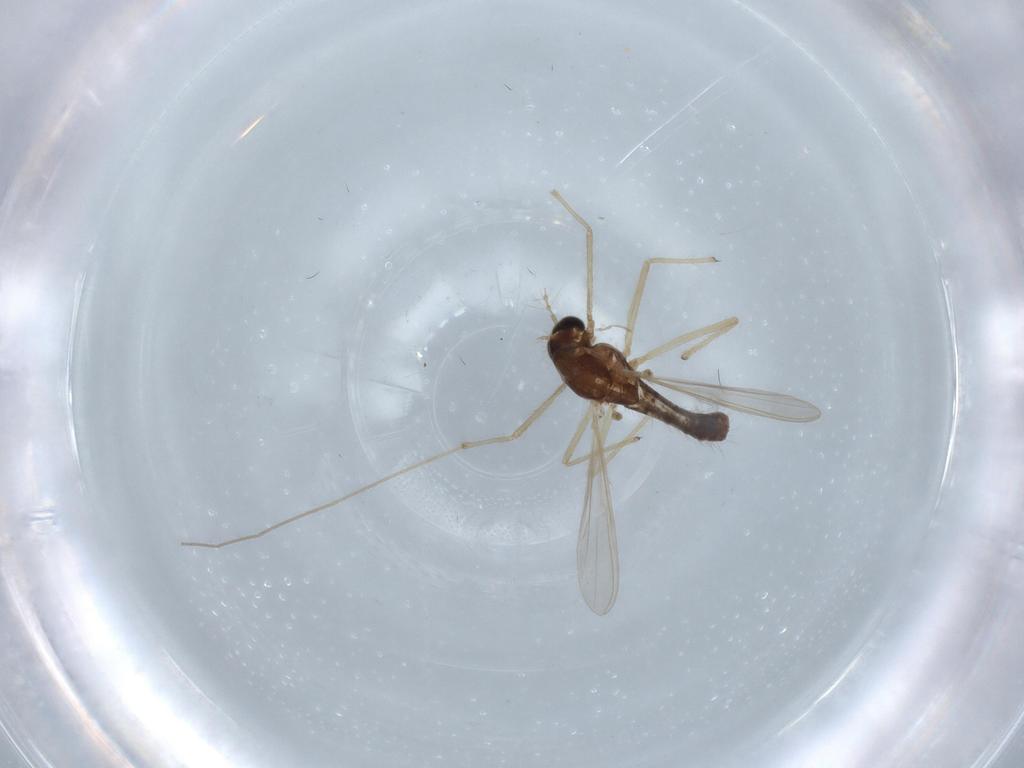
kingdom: Animalia
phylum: Arthropoda
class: Insecta
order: Diptera
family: Chironomidae
